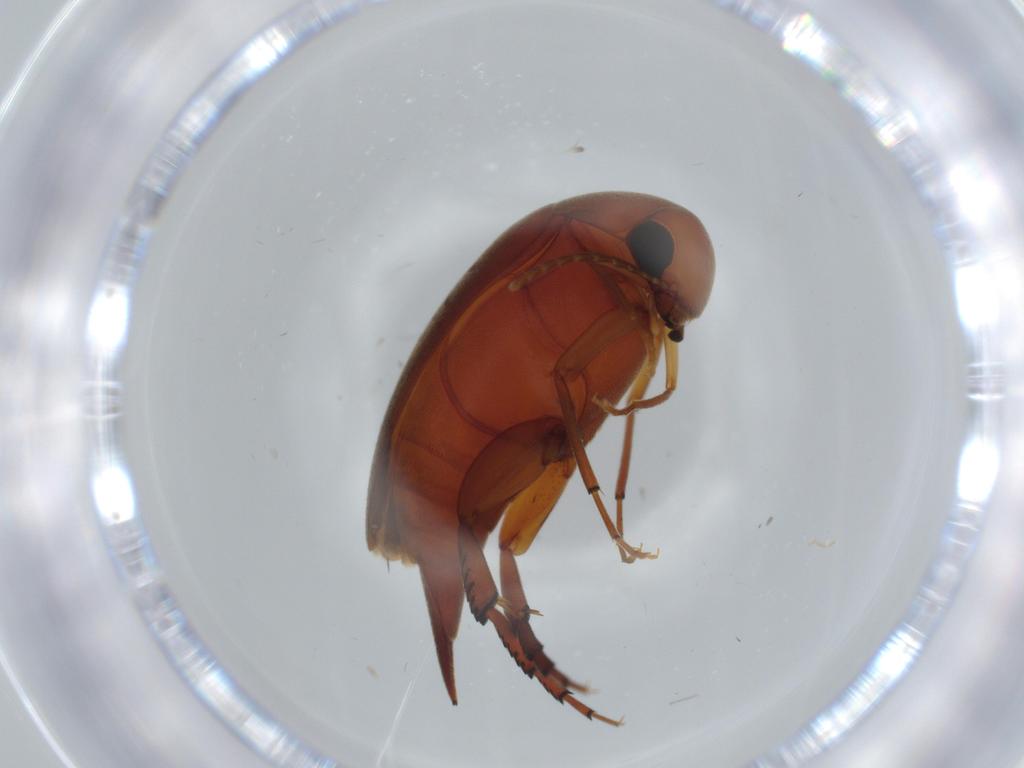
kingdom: Animalia
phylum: Arthropoda
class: Insecta
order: Coleoptera
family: Mordellidae
